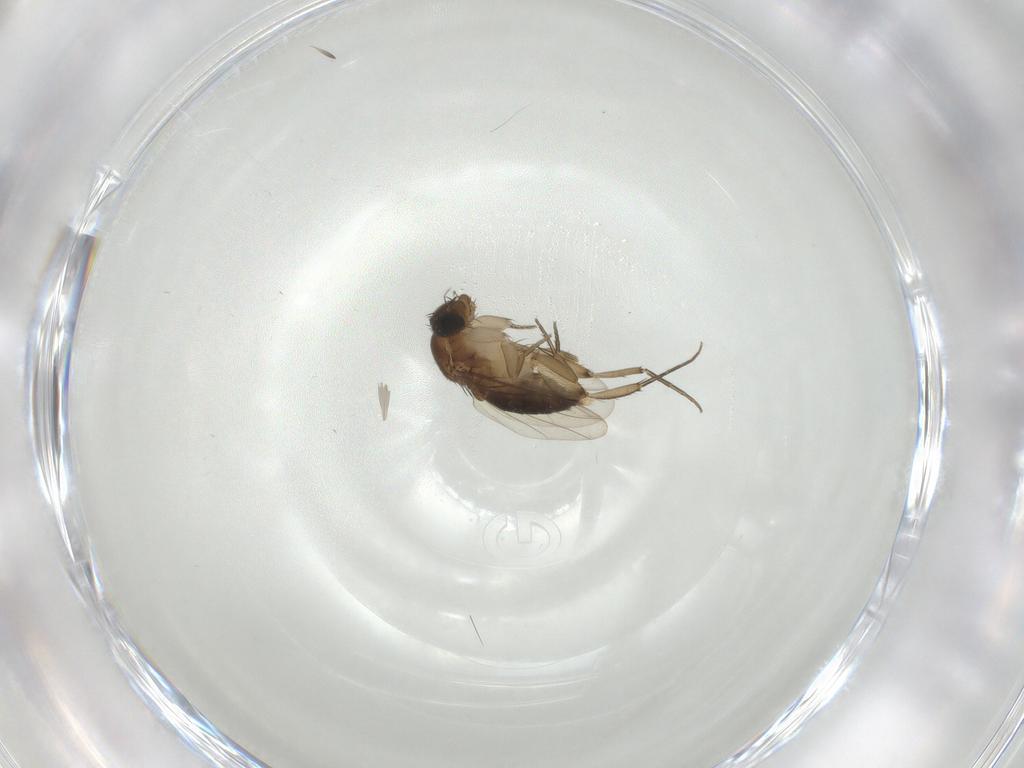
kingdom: Animalia
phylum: Arthropoda
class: Insecta
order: Diptera
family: Phoridae
